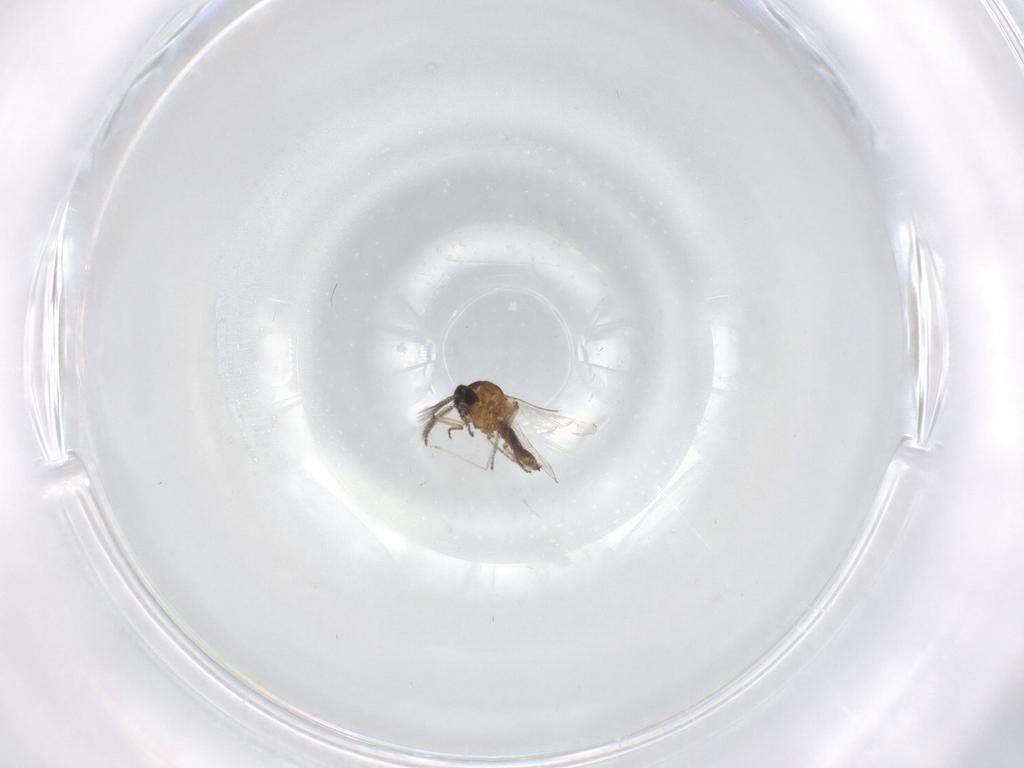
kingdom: Animalia
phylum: Arthropoda
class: Insecta
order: Diptera
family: Ceratopogonidae
